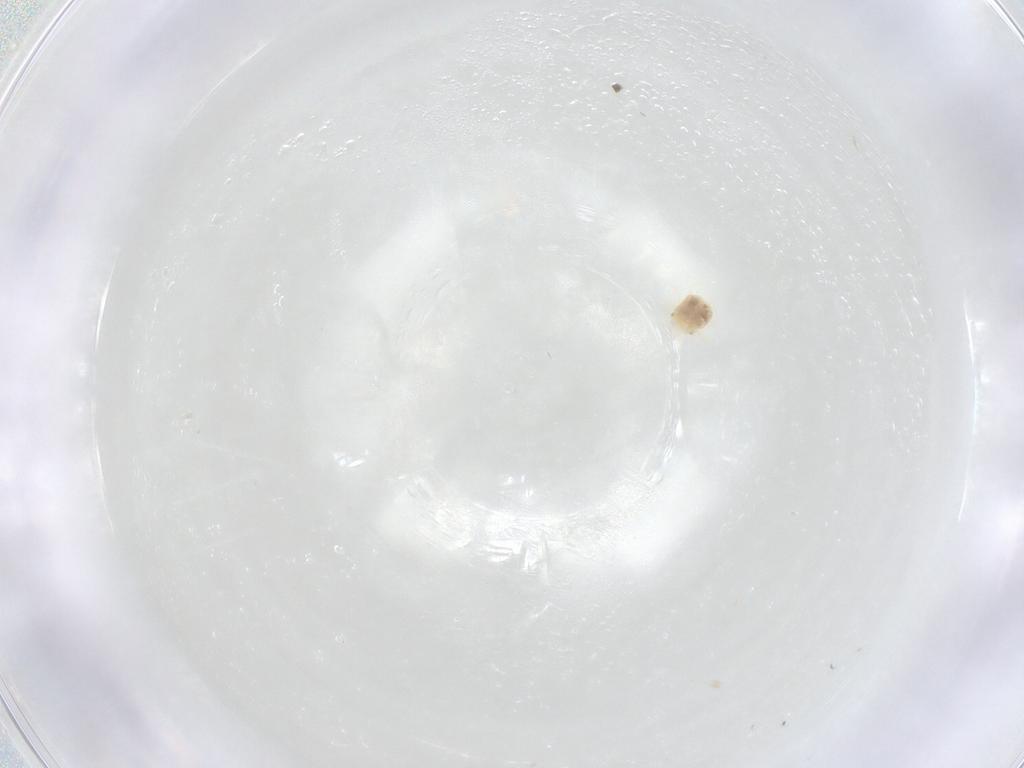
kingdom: Animalia
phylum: Arthropoda
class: Arachnida
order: Trombidiformes
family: Anystidae
